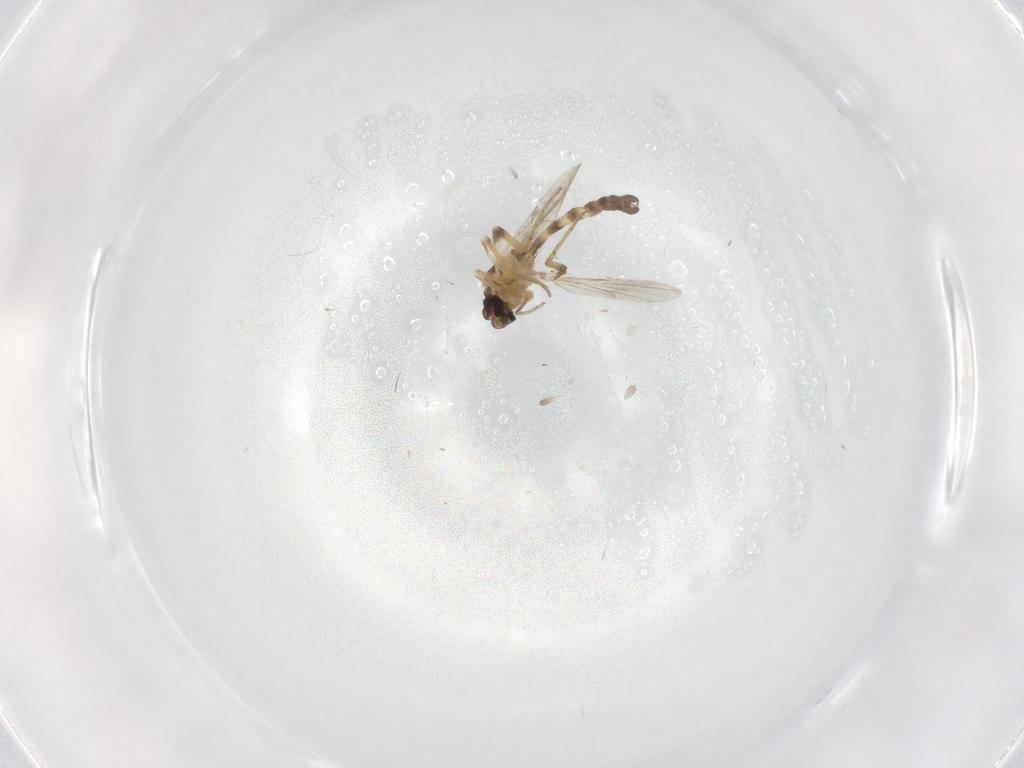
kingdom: Animalia
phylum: Arthropoda
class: Insecta
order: Diptera
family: Ceratopogonidae
